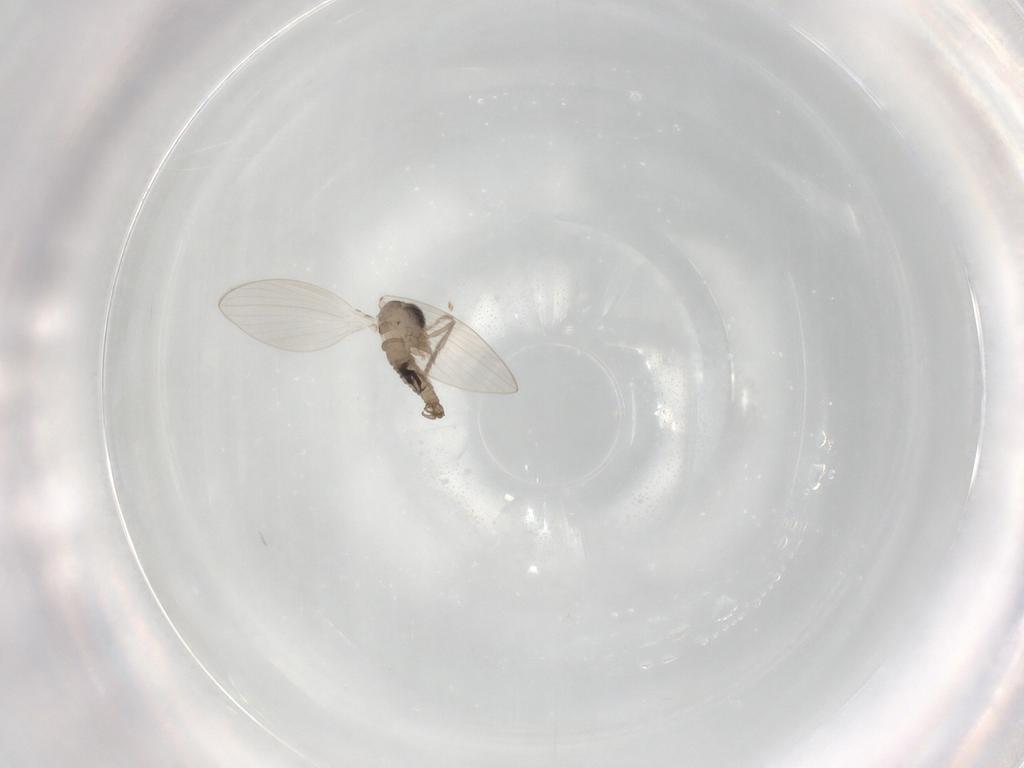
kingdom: Animalia
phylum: Arthropoda
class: Insecta
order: Diptera
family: Psychodidae
